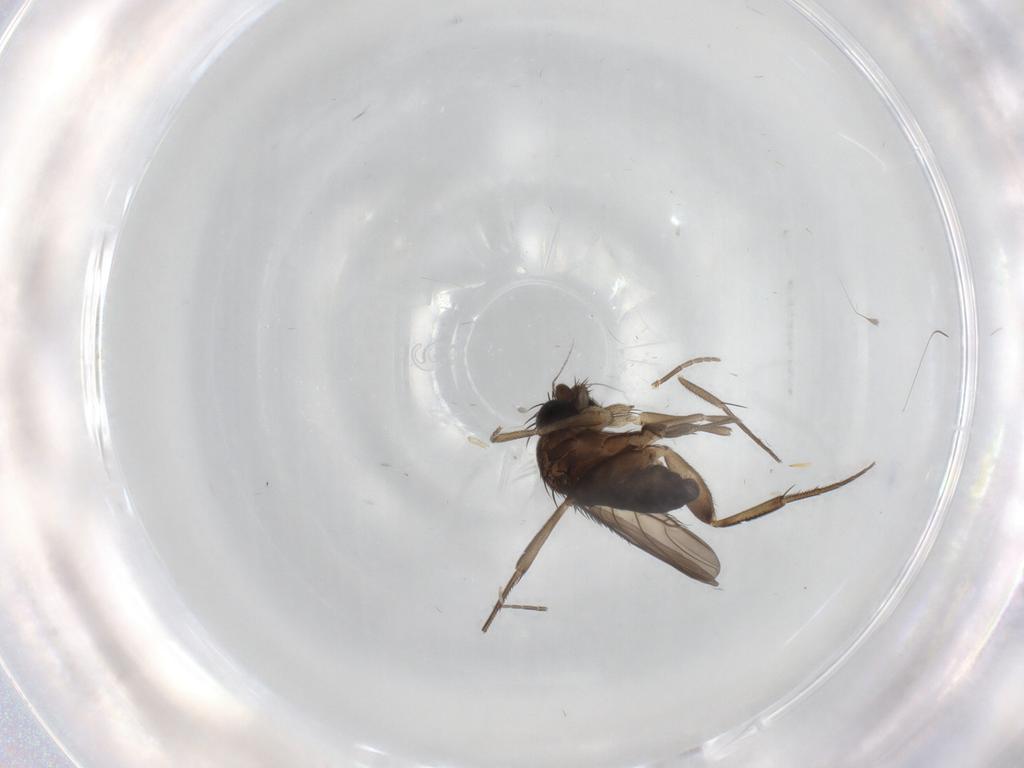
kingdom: Animalia
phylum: Arthropoda
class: Insecta
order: Diptera
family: Phoridae
